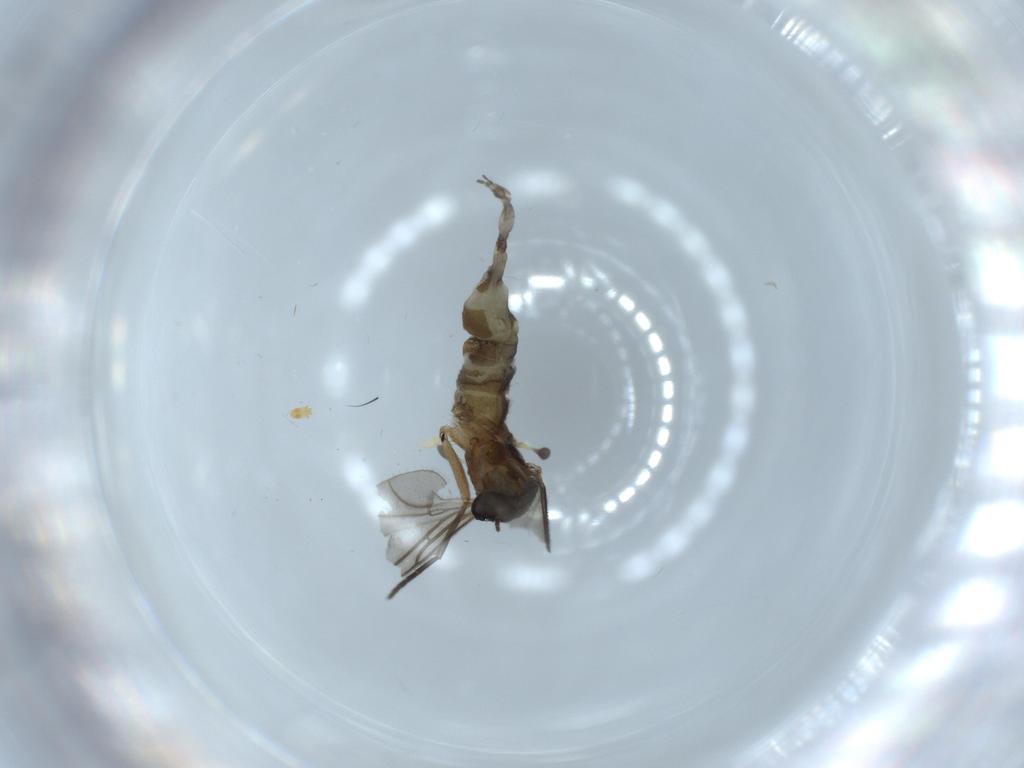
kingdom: Animalia
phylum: Arthropoda
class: Insecta
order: Diptera
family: Sciaridae
